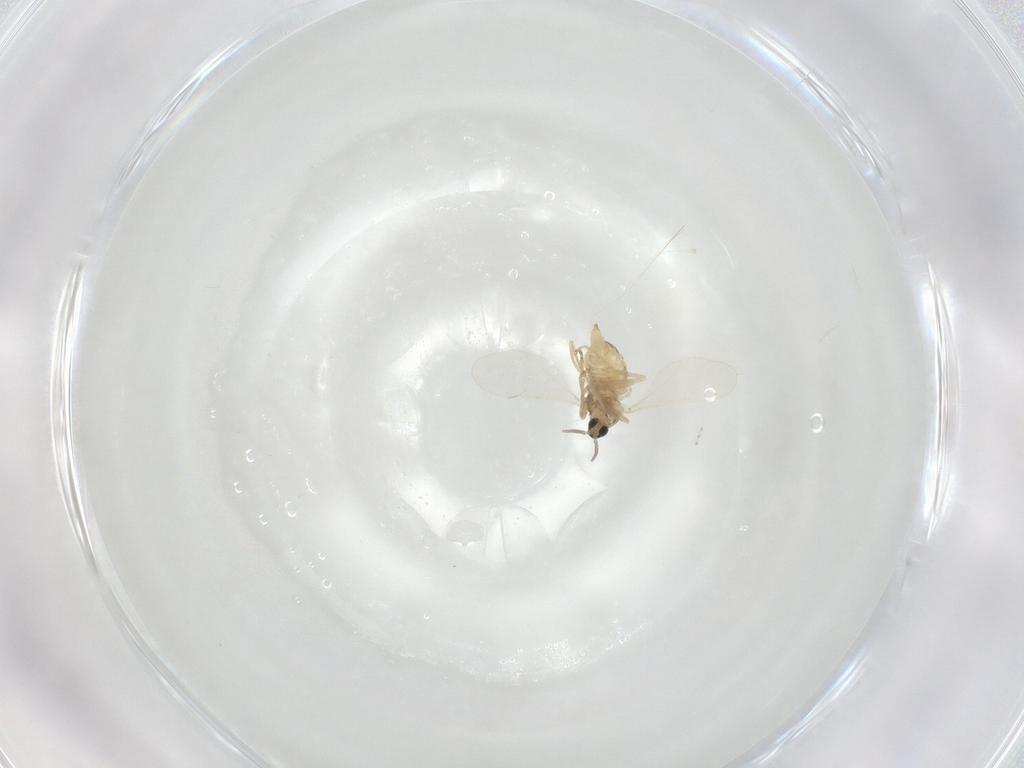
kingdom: Animalia
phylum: Arthropoda
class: Insecta
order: Diptera
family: Cecidomyiidae
